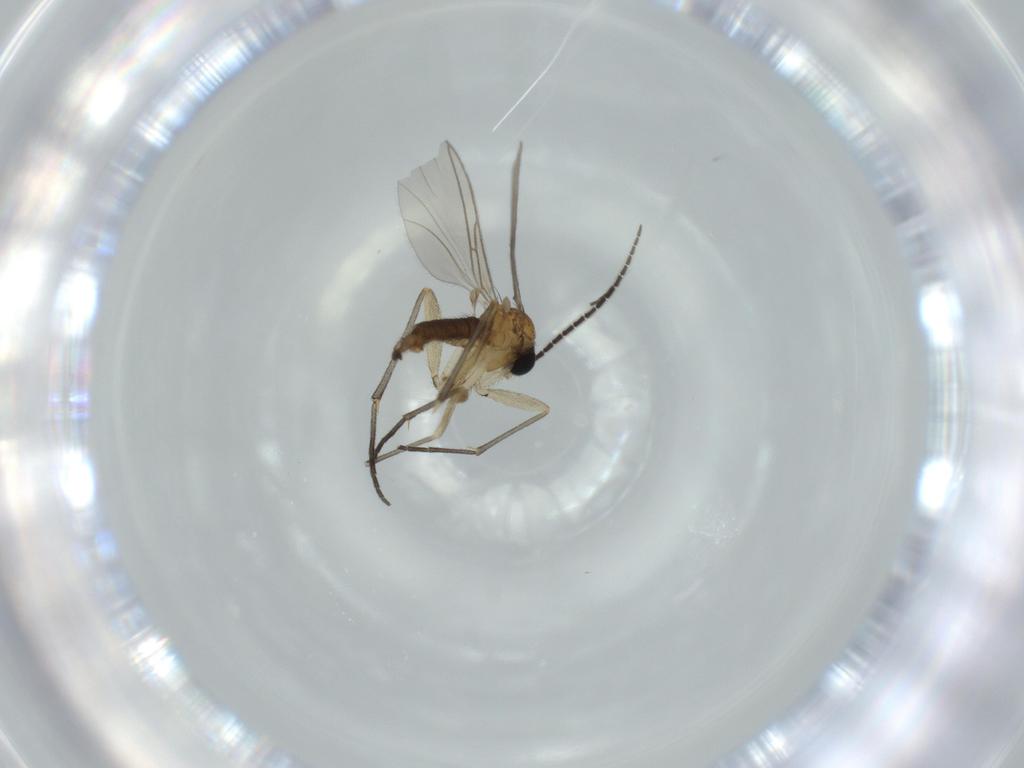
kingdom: Animalia
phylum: Arthropoda
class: Insecta
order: Diptera
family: Sciaridae
